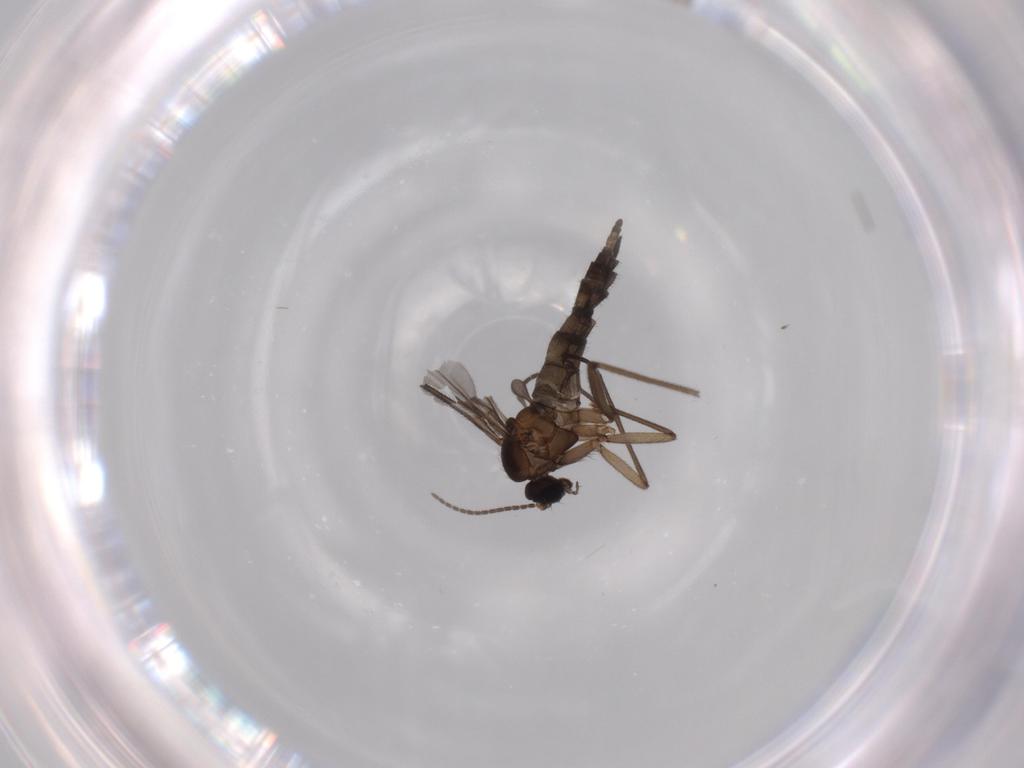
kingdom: Animalia
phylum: Arthropoda
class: Insecta
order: Diptera
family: Sciaridae
